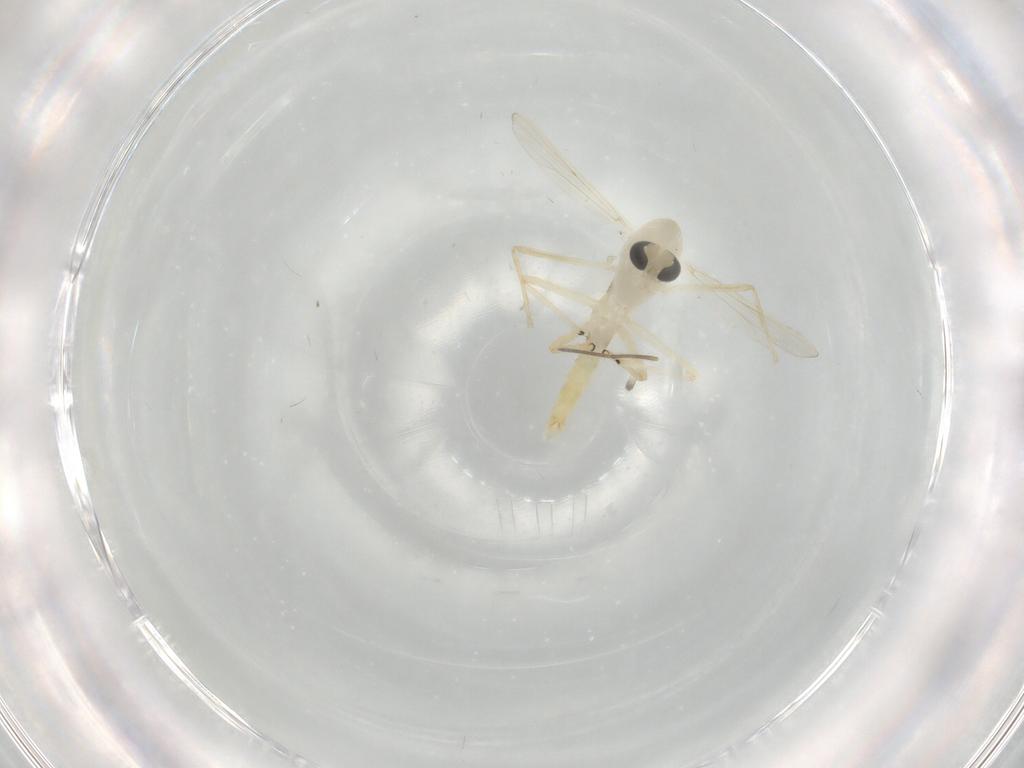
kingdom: Animalia
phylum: Arthropoda
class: Insecta
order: Diptera
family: Chironomidae
